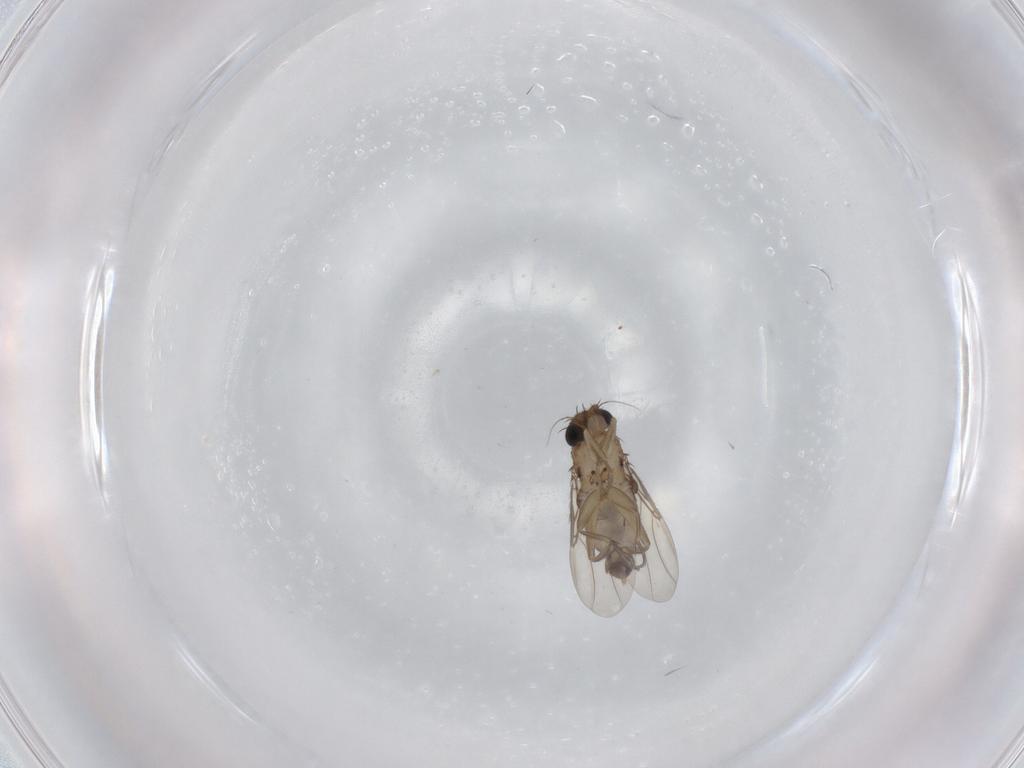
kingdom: Animalia
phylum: Arthropoda
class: Insecta
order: Diptera
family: Phoridae
